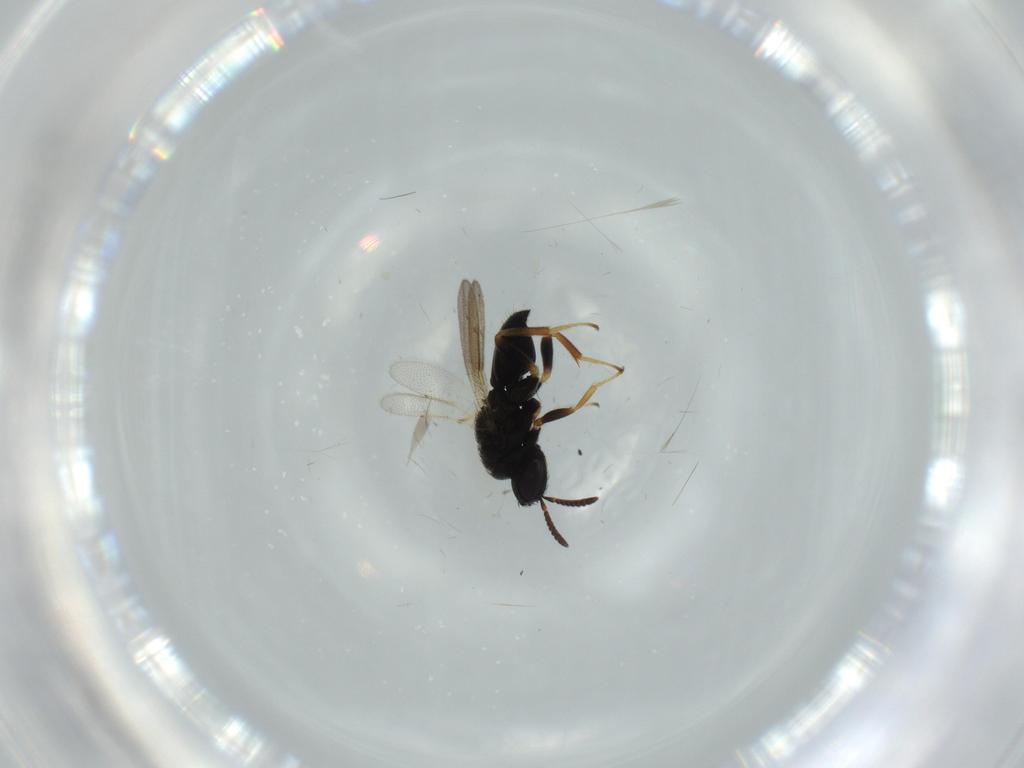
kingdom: Animalia
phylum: Arthropoda
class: Insecta
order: Hymenoptera
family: Pteromalidae
